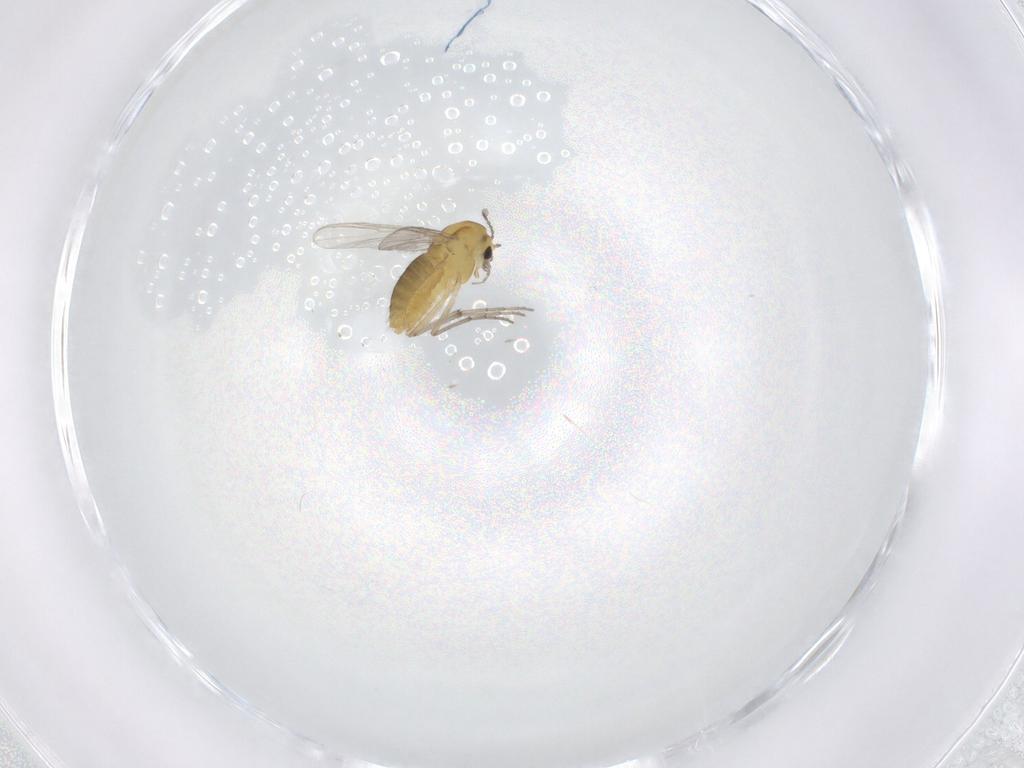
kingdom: Animalia
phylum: Arthropoda
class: Insecta
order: Diptera
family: Chironomidae
